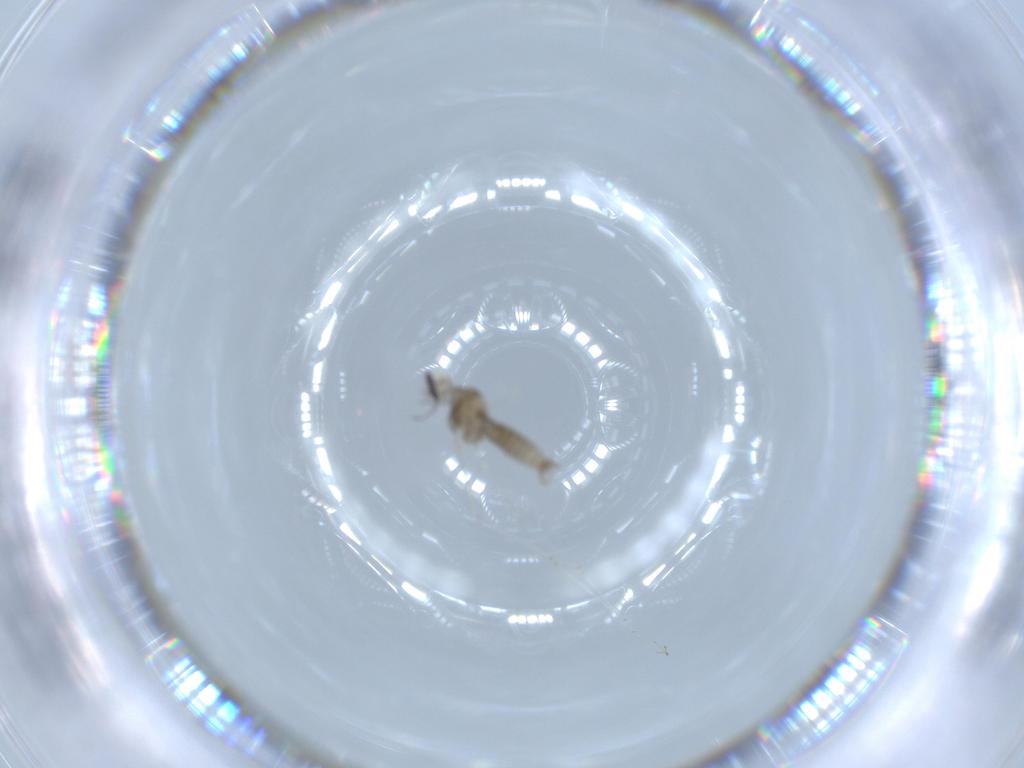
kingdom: Animalia
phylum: Arthropoda
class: Insecta
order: Diptera
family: Cecidomyiidae
